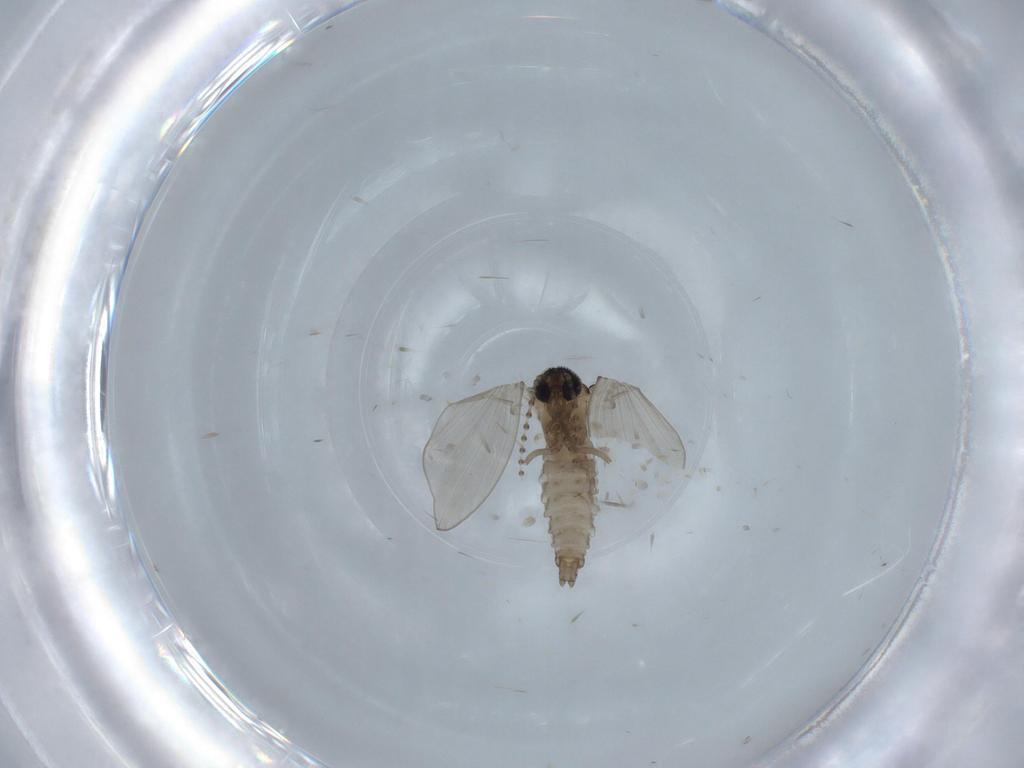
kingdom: Animalia
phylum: Arthropoda
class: Insecta
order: Diptera
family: Psychodidae
